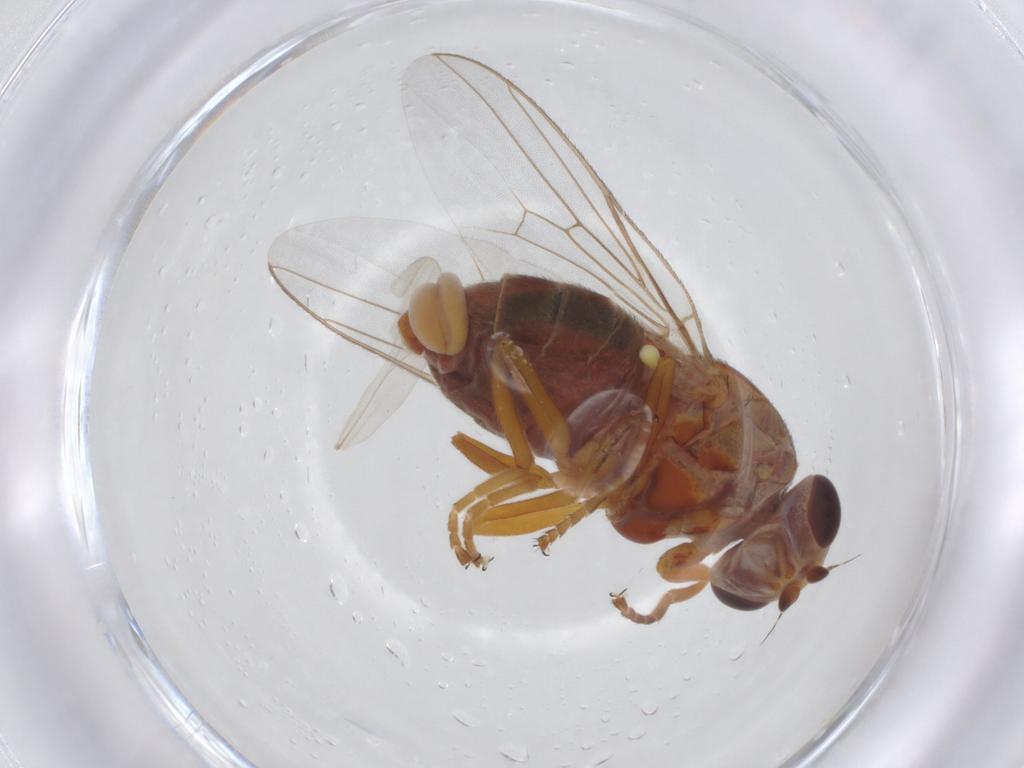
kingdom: Animalia
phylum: Arthropoda
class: Insecta
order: Diptera
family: Chloropidae
